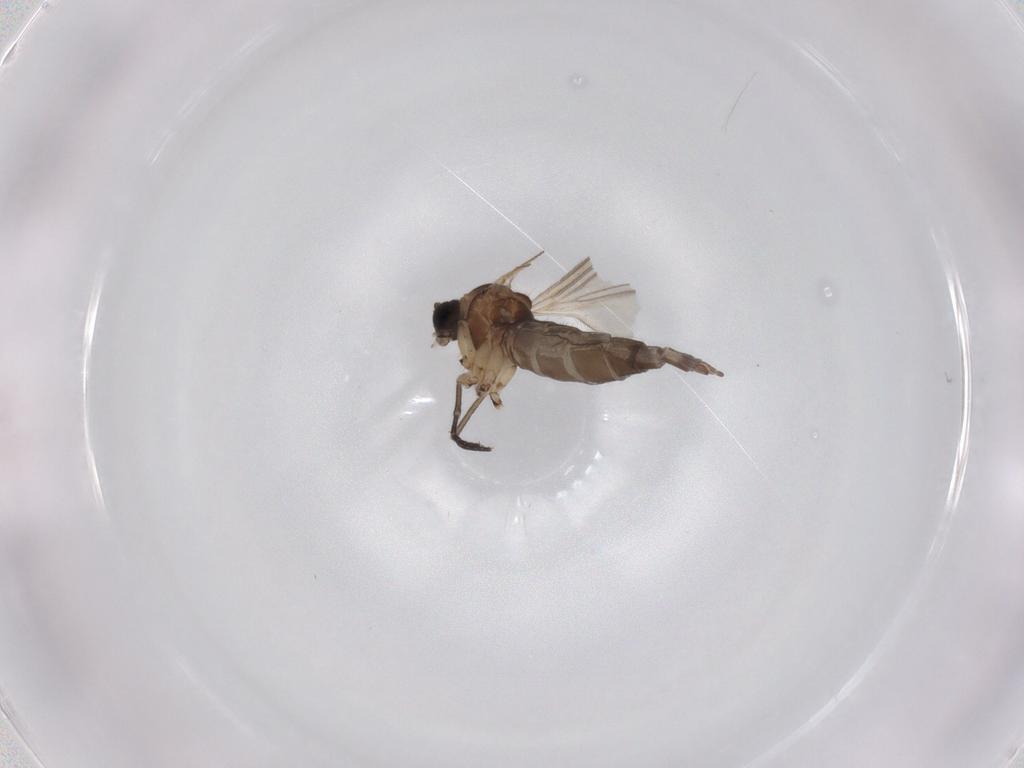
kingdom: Animalia
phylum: Arthropoda
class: Insecta
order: Diptera
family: Sciaridae
